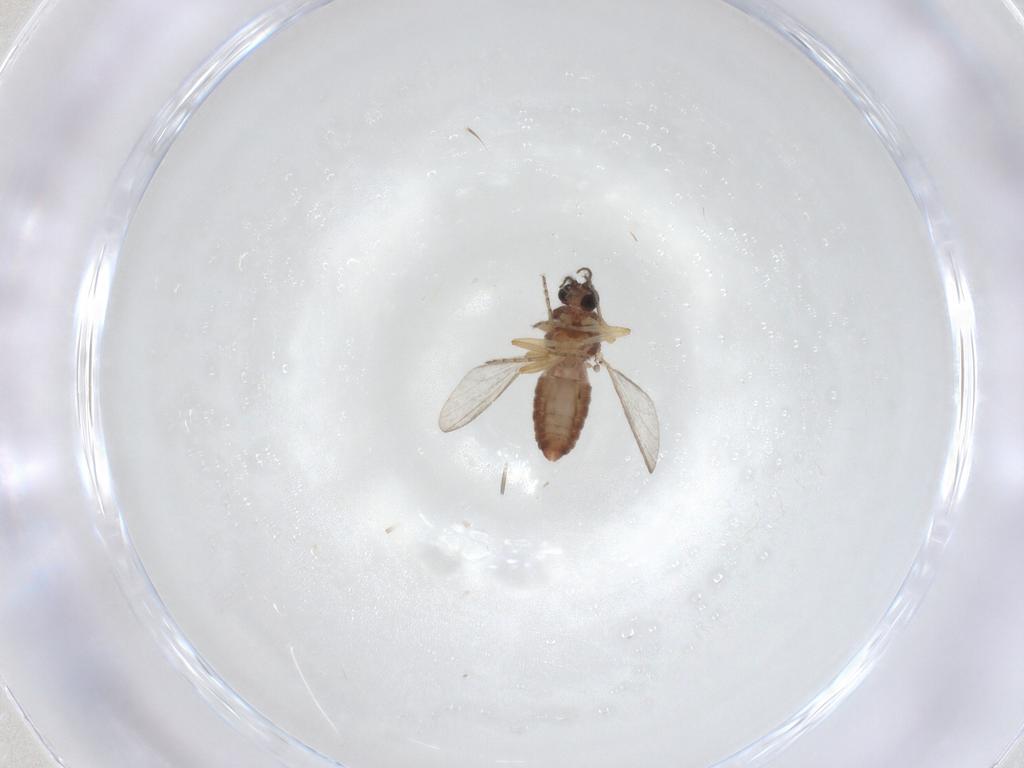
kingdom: Animalia
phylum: Arthropoda
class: Insecta
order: Diptera
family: Ceratopogonidae
